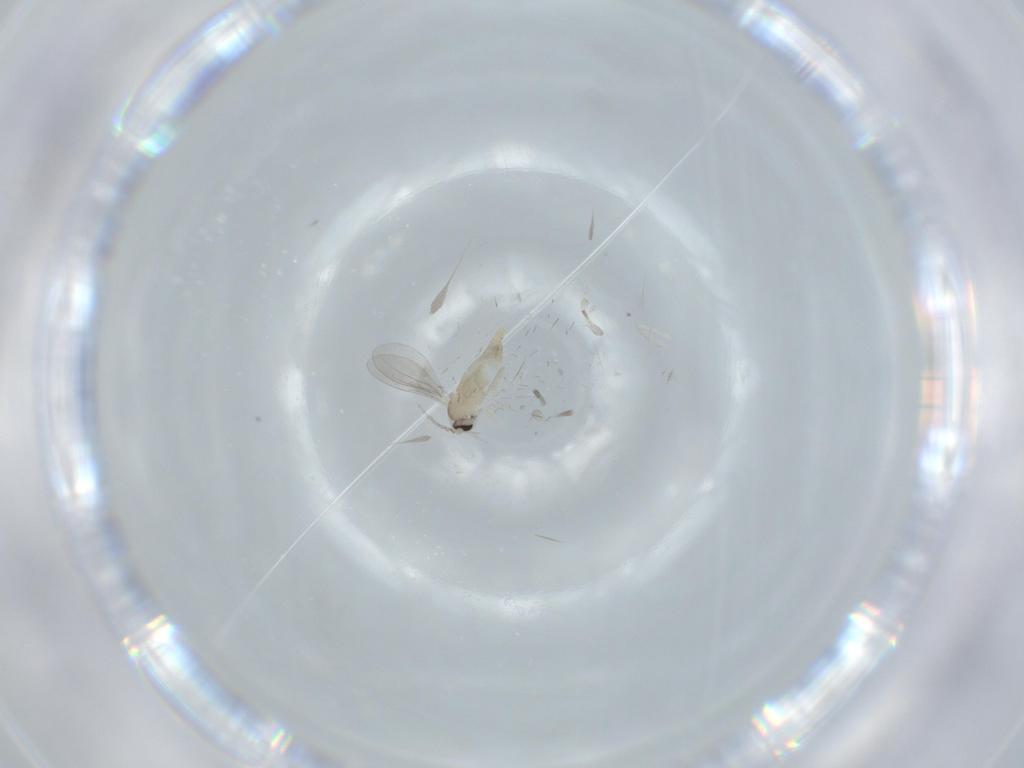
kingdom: Animalia
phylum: Arthropoda
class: Insecta
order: Diptera
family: Cecidomyiidae
